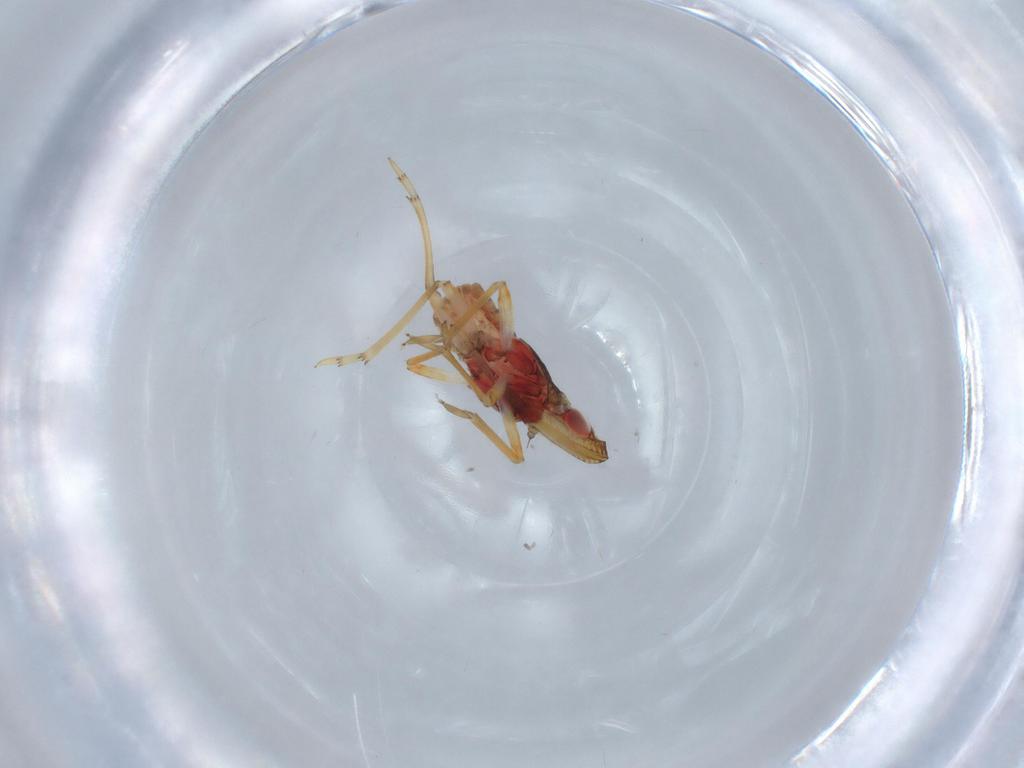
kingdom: Animalia
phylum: Arthropoda
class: Insecta
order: Hemiptera
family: Fulgoroidea_incertae_sedis
